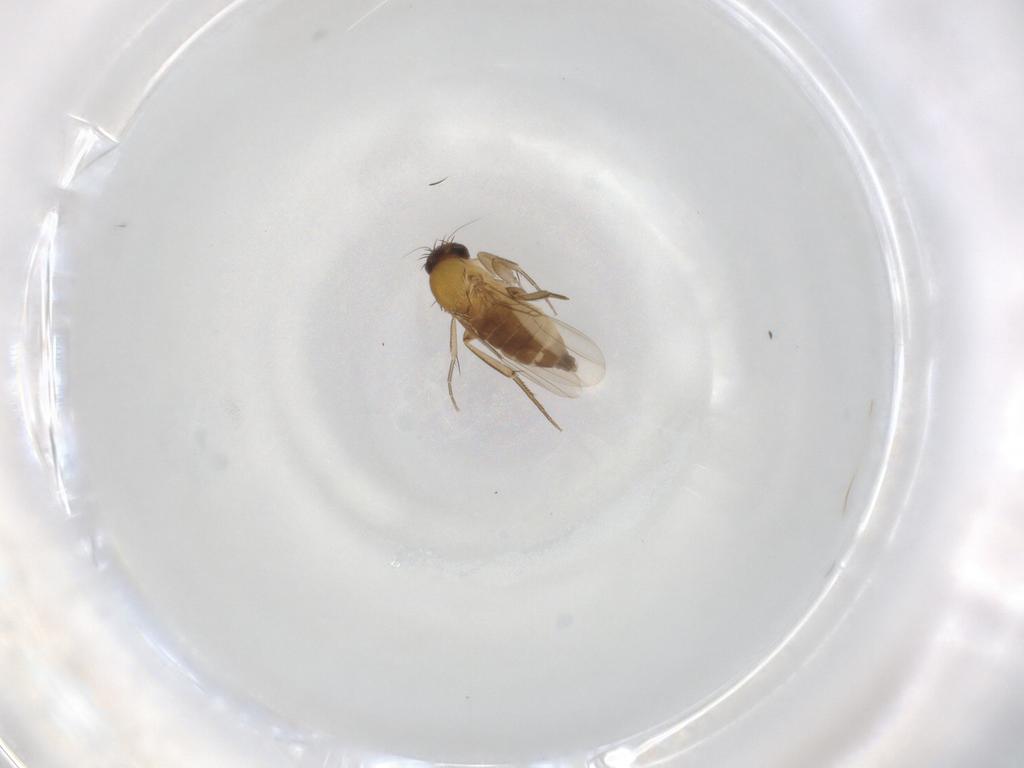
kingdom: Animalia
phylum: Arthropoda
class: Insecta
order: Diptera
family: Phoridae
